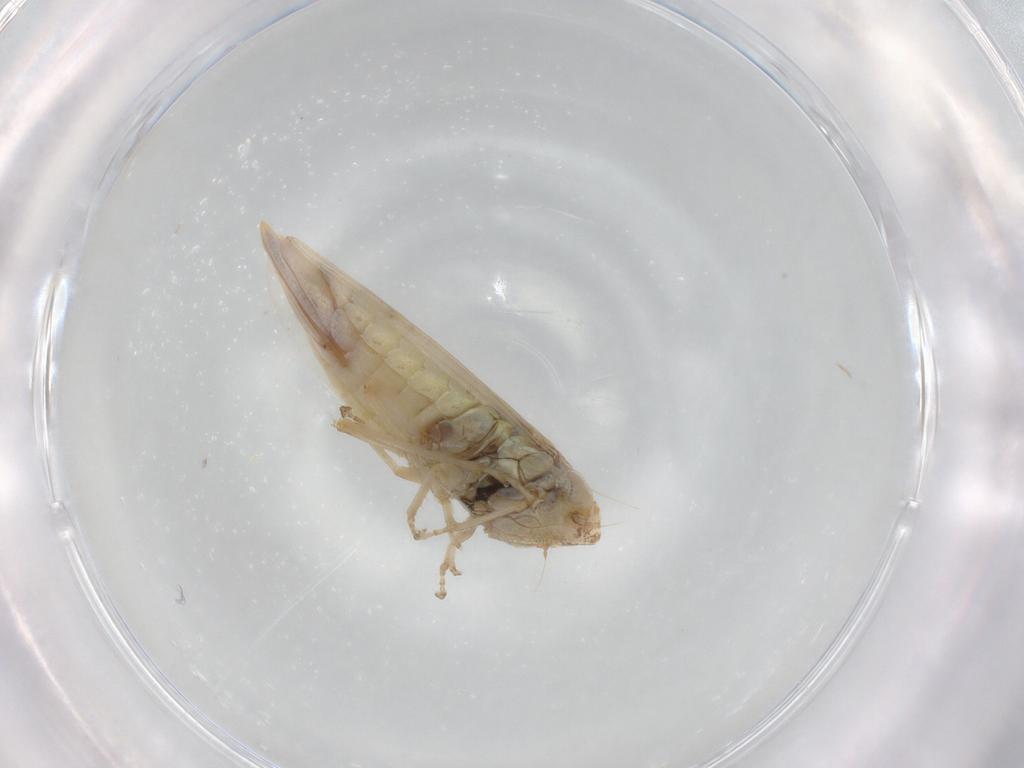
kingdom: Animalia
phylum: Arthropoda
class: Insecta
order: Hemiptera
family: Cicadellidae
